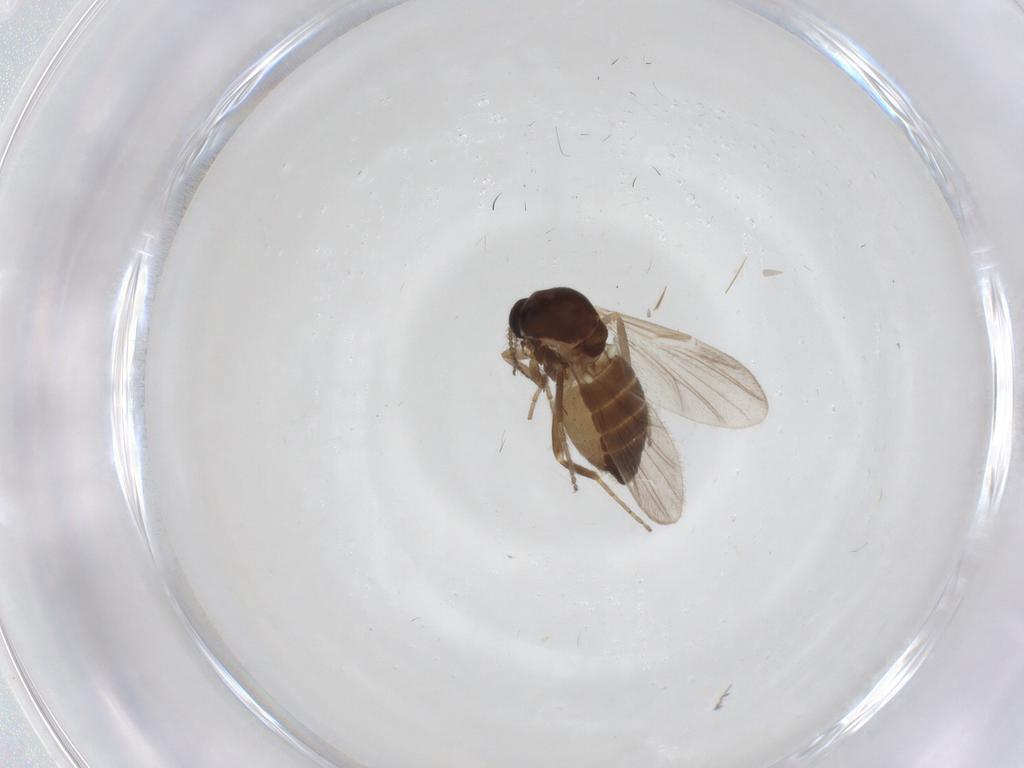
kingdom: Animalia
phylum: Arthropoda
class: Insecta
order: Diptera
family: Ceratopogonidae
